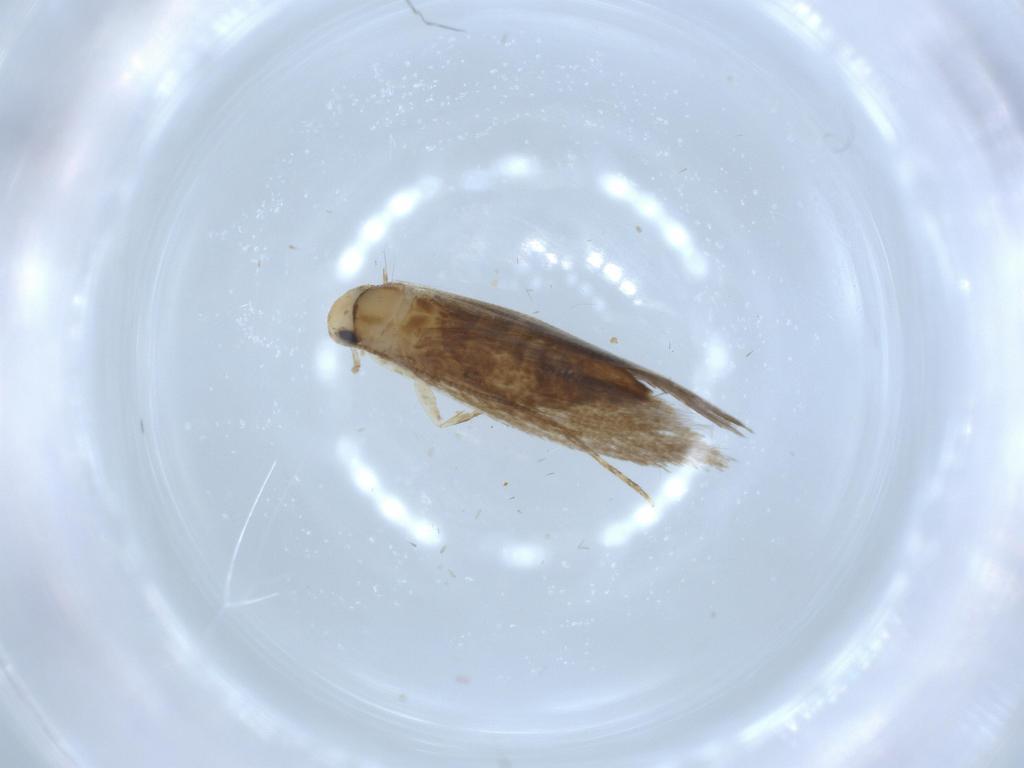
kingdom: Animalia
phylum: Arthropoda
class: Insecta
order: Lepidoptera
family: Tineidae
